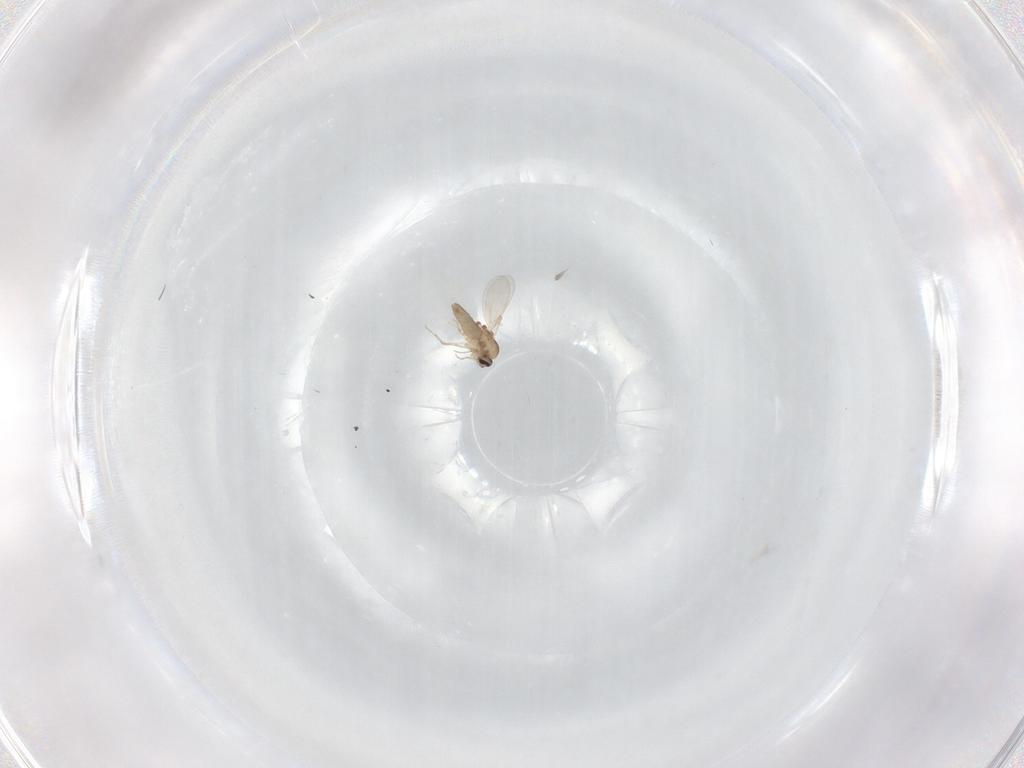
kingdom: Animalia
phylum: Arthropoda
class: Insecta
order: Diptera
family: Ceratopogonidae
